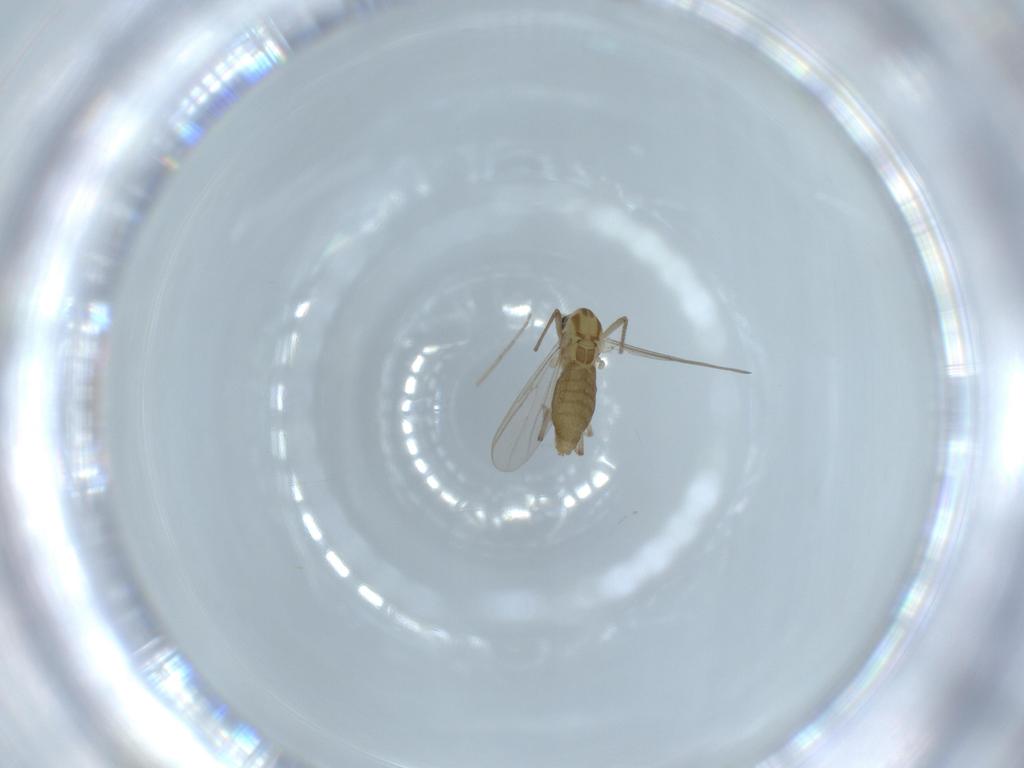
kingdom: Animalia
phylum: Arthropoda
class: Insecta
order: Diptera
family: Chironomidae
